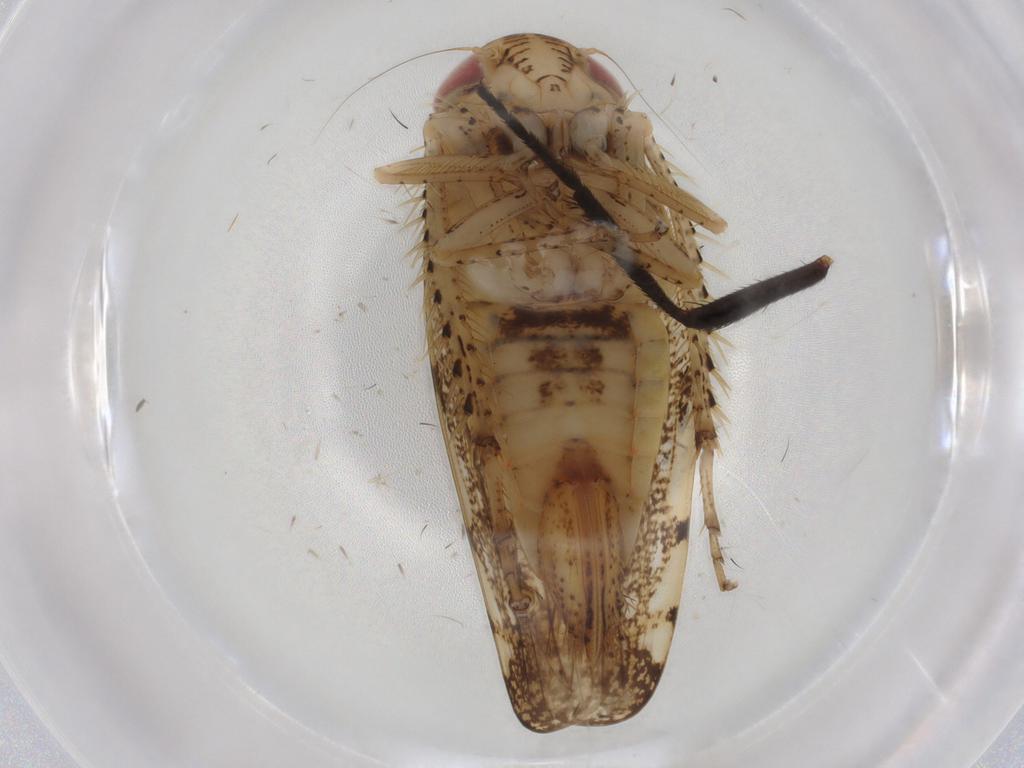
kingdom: Animalia
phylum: Arthropoda
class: Insecta
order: Hemiptera
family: Cicadellidae
